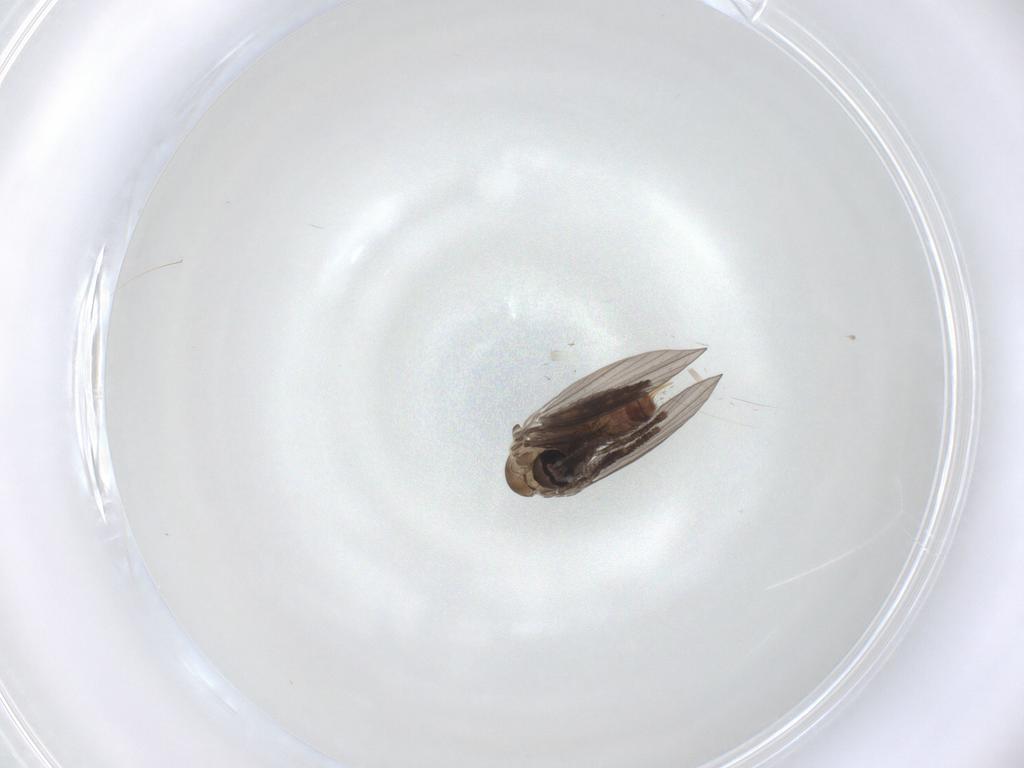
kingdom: Animalia
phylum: Arthropoda
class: Insecta
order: Diptera
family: Psychodidae
